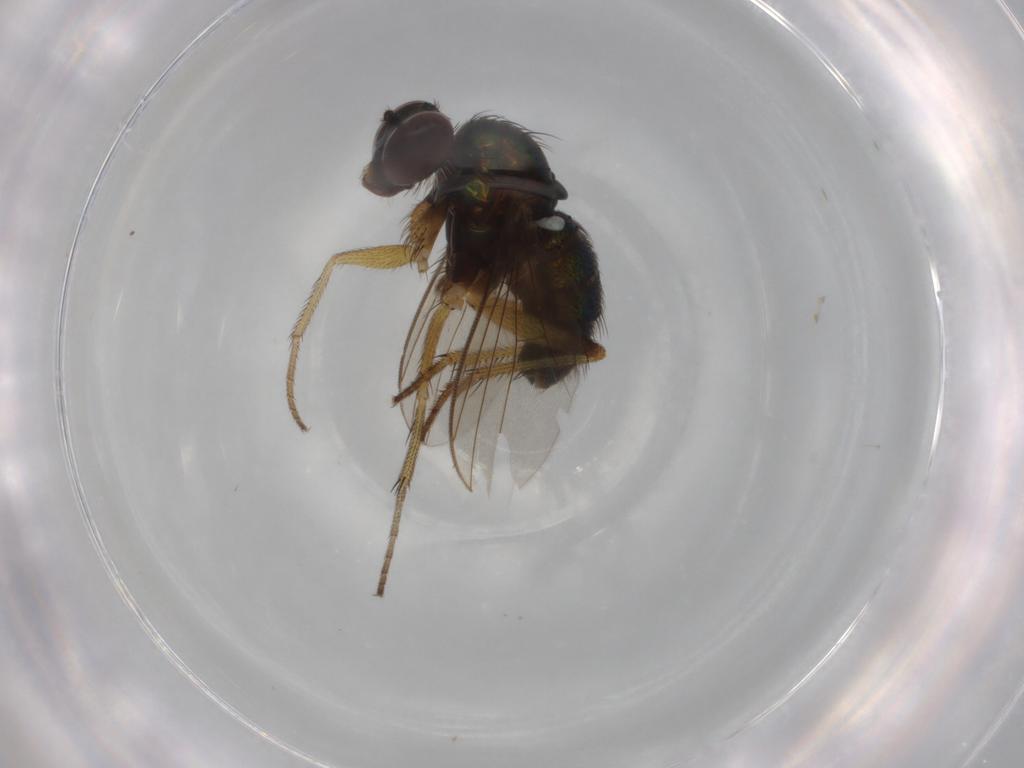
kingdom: Animalia
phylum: Arthropoda
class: Insecta
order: Diptera
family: Dolichopodidae
